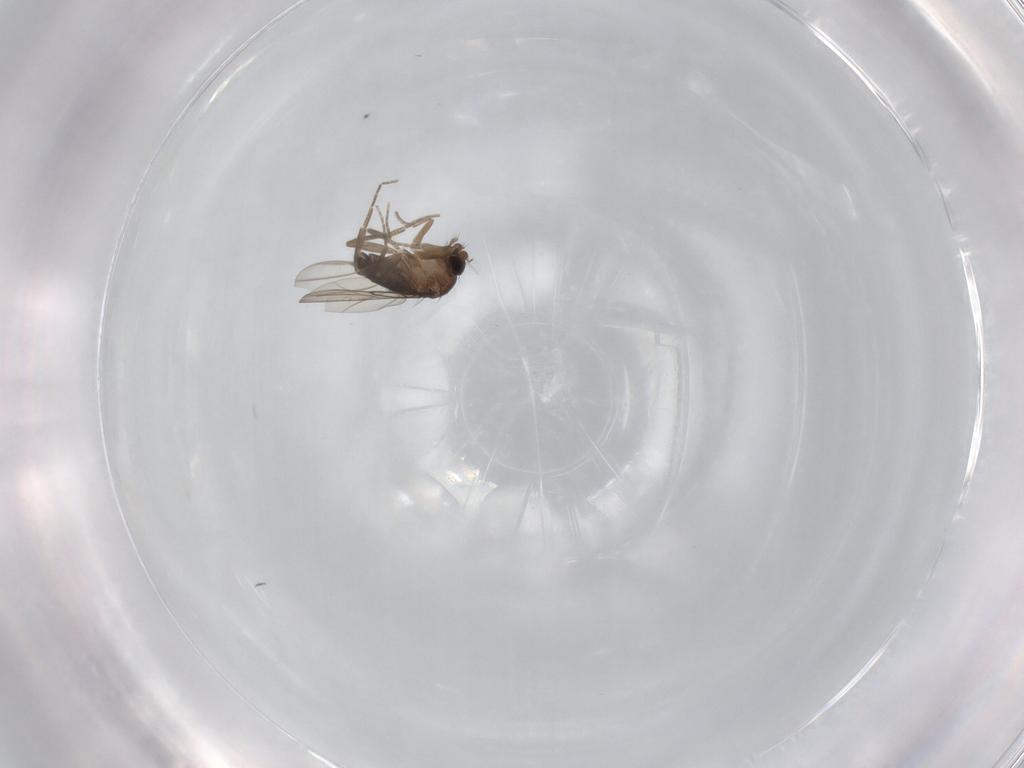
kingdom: Animalia
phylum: Arthropoda
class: Insecta
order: Diptera
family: Phoridae
